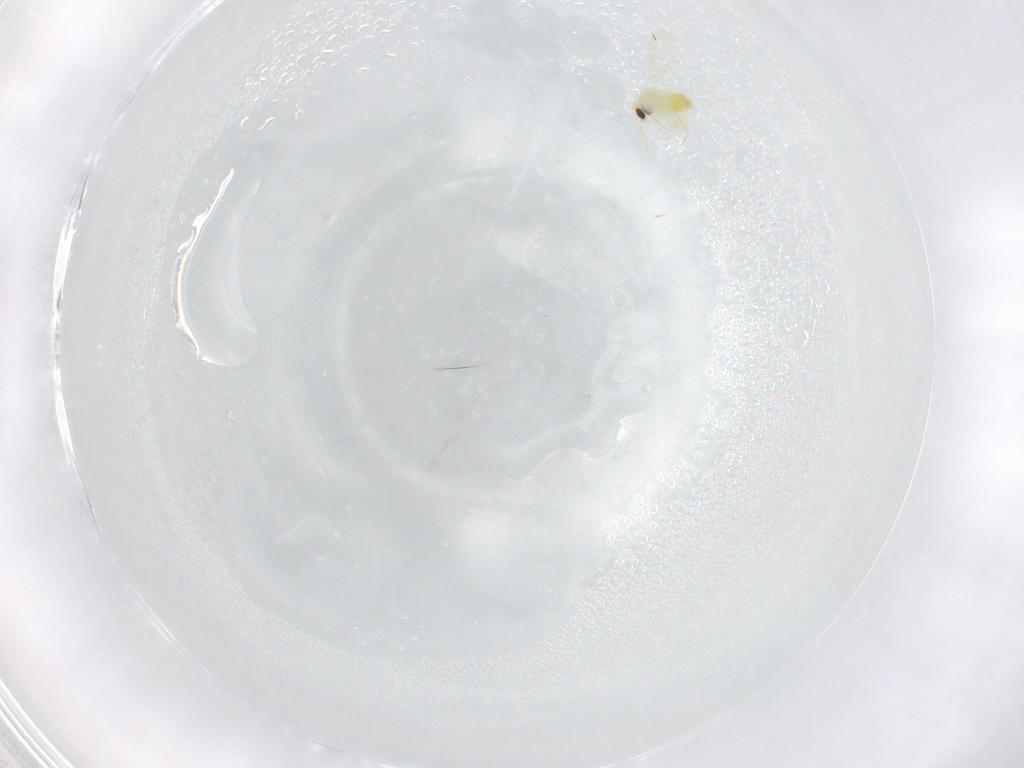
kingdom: Animalia
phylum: Arthropoda
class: Insecta
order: Hemiptera
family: Aleyrodidae
